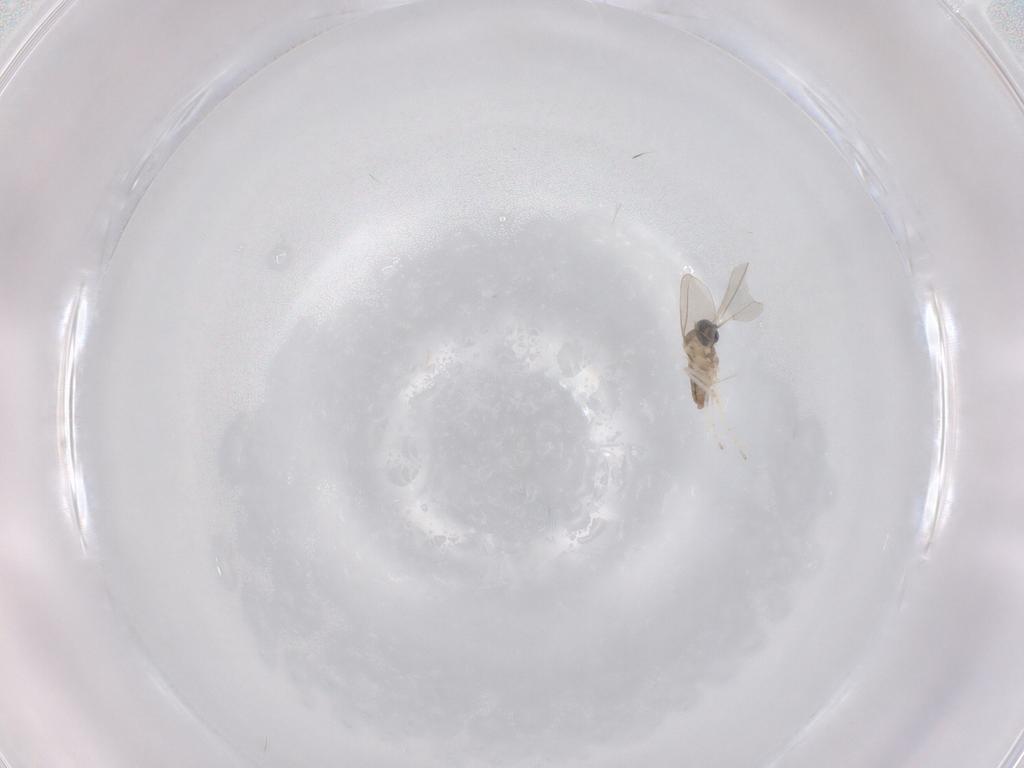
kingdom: Animalia
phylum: Arthropoda
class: Insecta
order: Diptera
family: Cecidomyiidae
